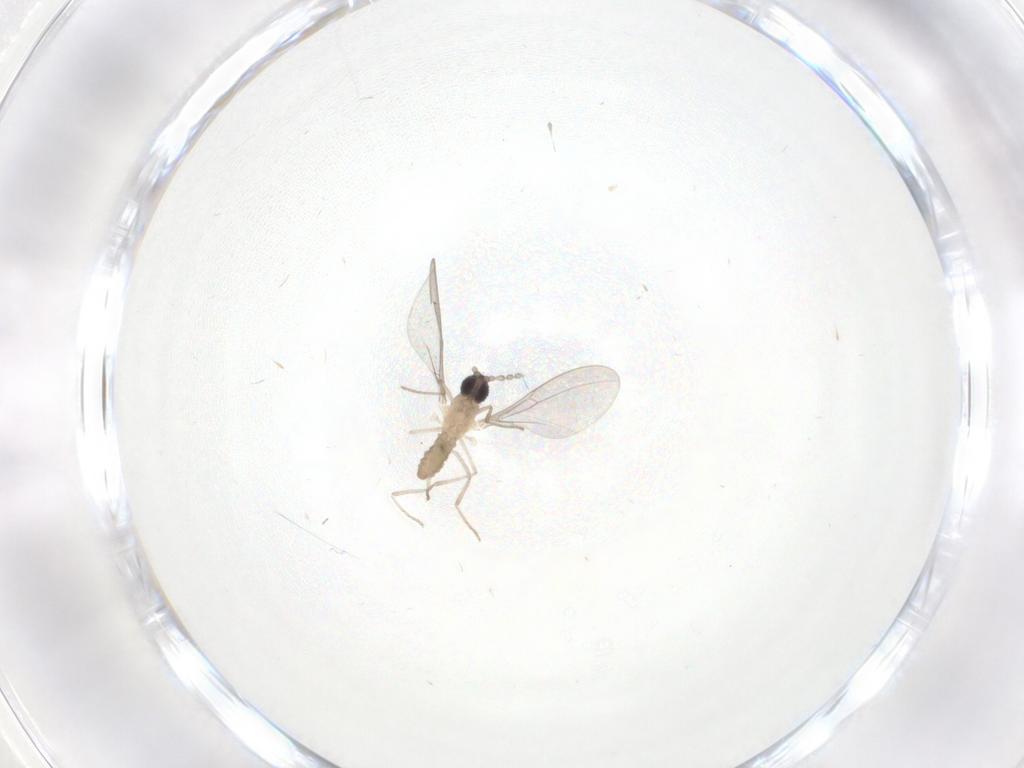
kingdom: Animalia
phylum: Arthropoda
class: Insecta
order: Diptera
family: Cecidomyiidae
